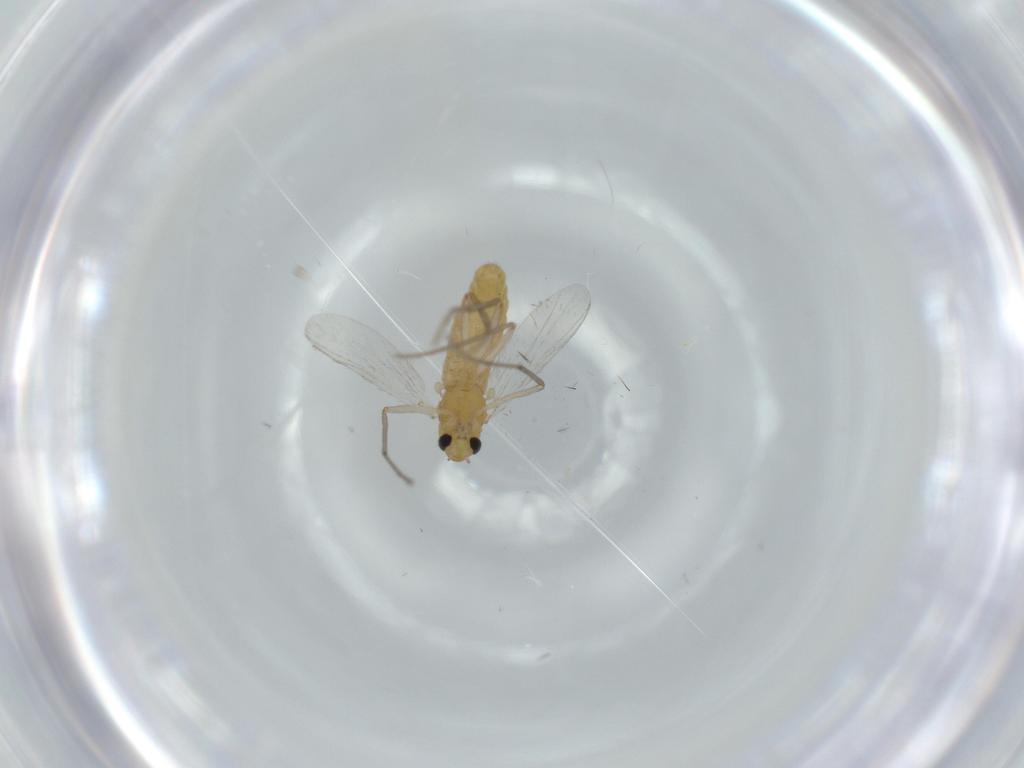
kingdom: Animalia
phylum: Arthropoda
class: Insecta
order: Diptera
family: Chironomidae
